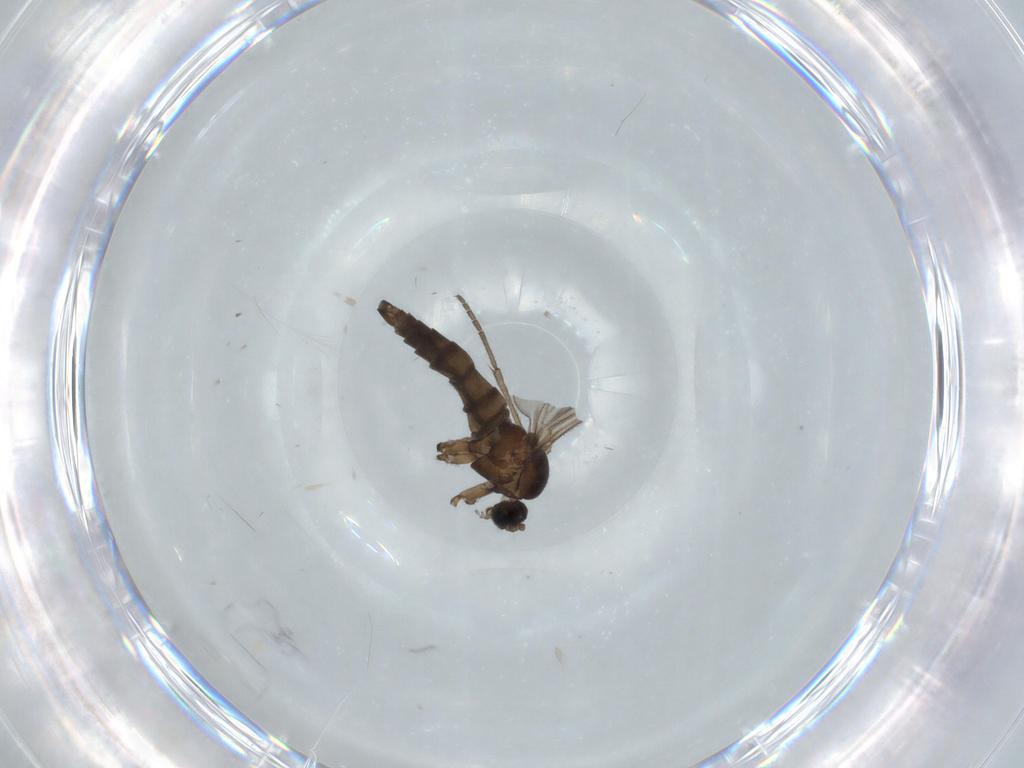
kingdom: Animalia
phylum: Arthropoda
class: Insecta
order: Diptera
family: Sciaridae
